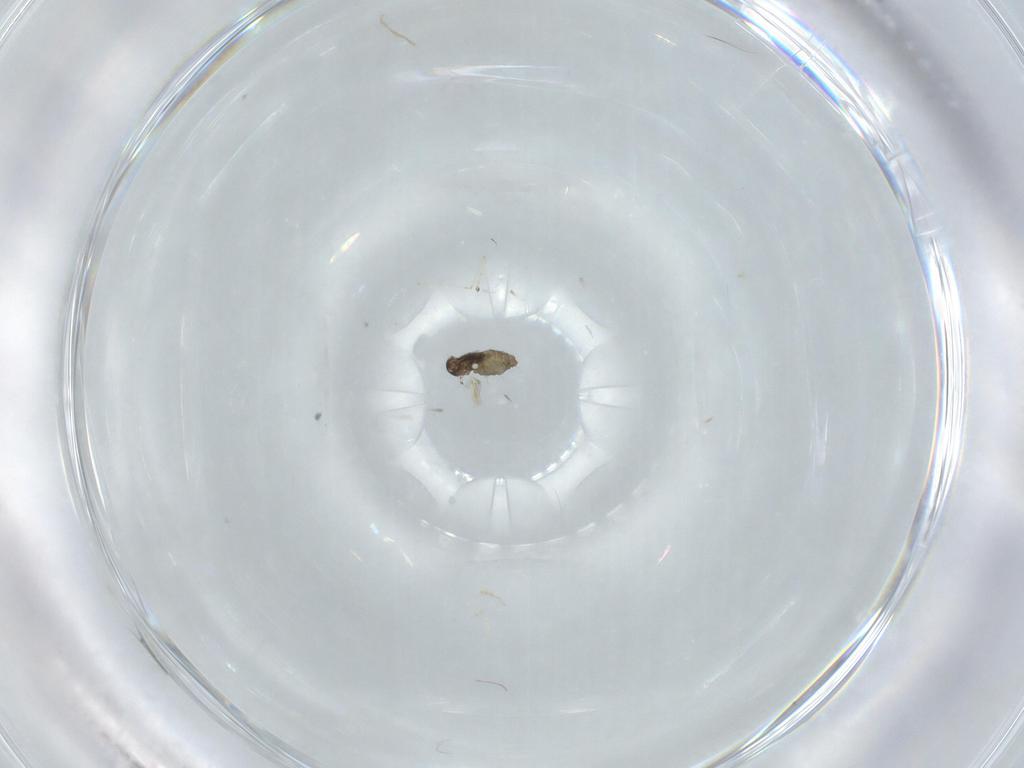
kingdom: Animalia
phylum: Arthropoda
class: Insecta
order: Diptera
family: Cecidomyiidae
